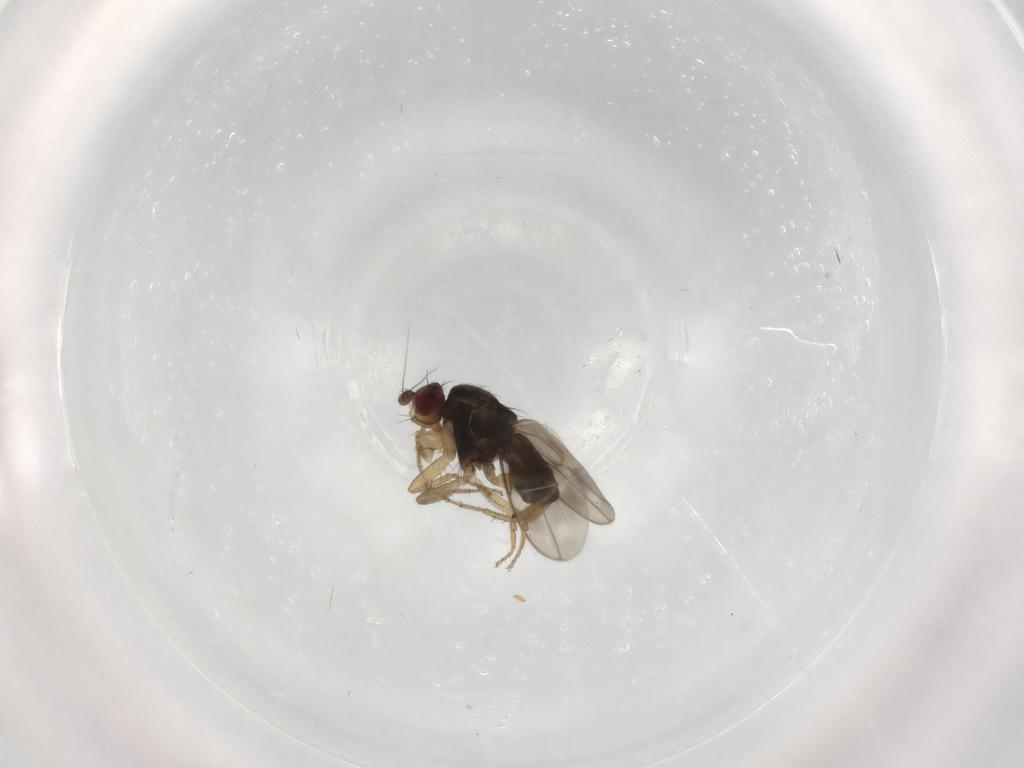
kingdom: Animalia
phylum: Arthropoda
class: Insecta
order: Diptera
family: Sphaeroceridae
